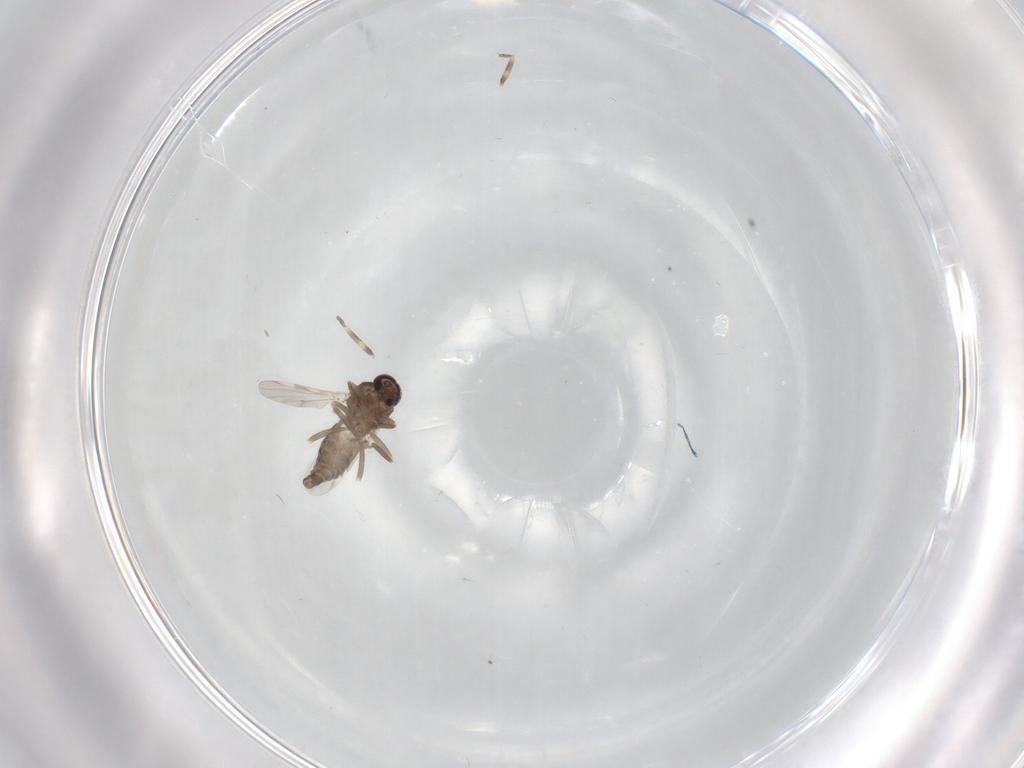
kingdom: Animalia
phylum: Arthropoda
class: Insecta
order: Diptera
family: Ceratopogonidae
